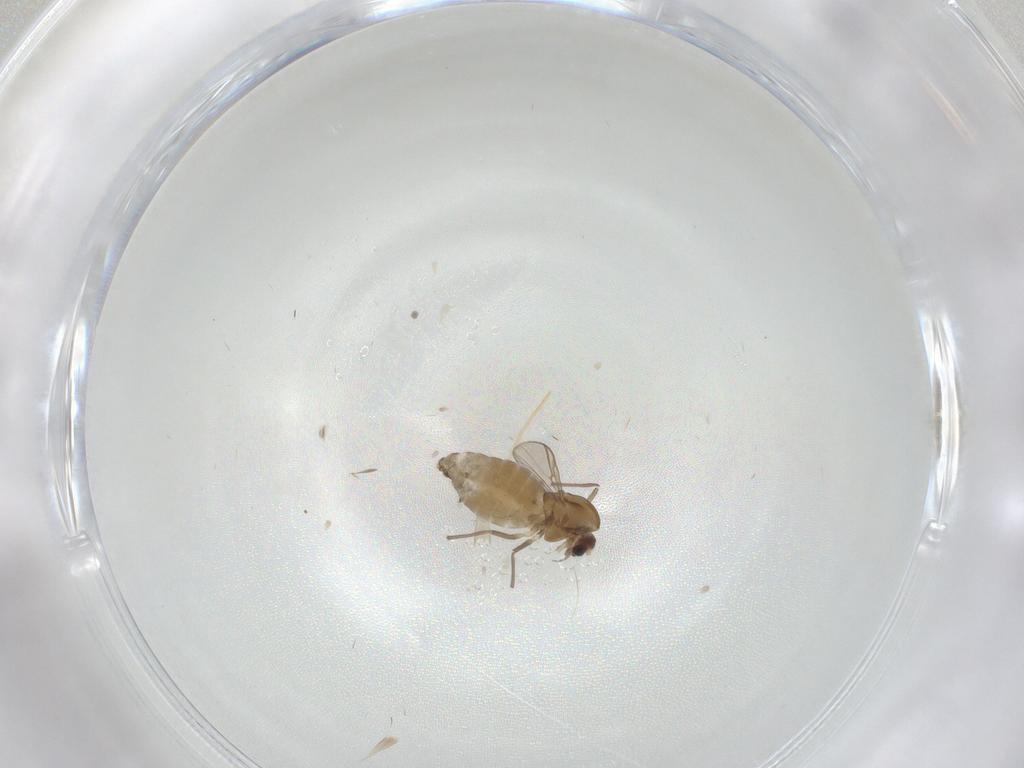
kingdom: Animalia
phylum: Arthropoda
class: Insecta
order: Diptera
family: Chironomidae
